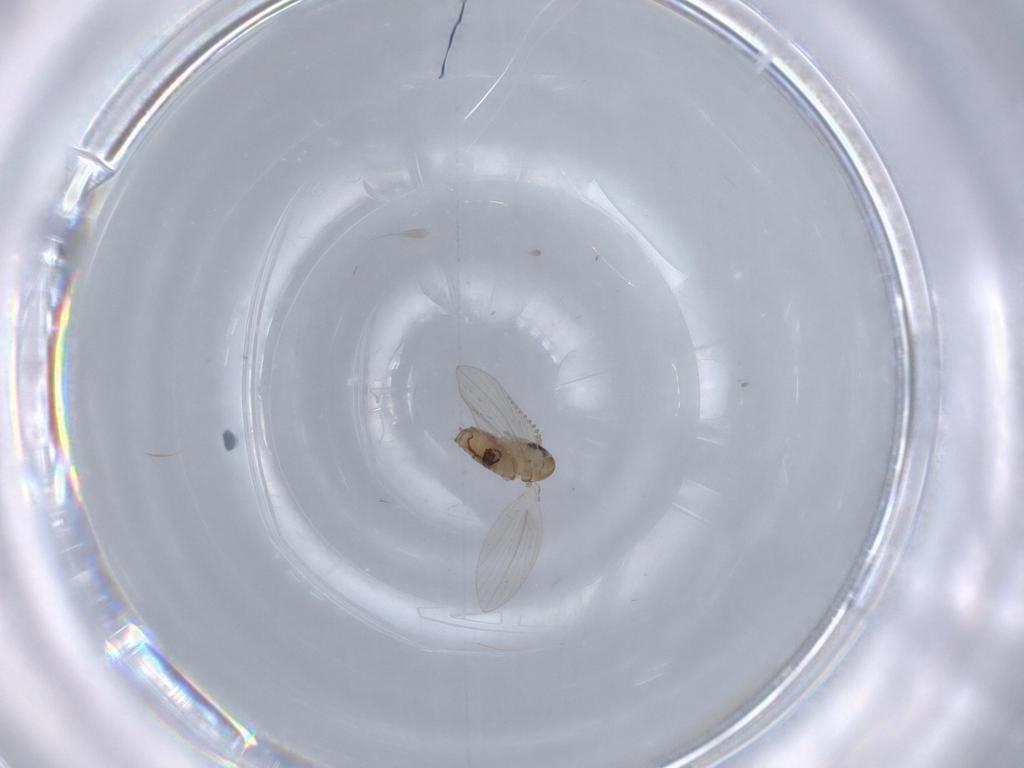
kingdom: Animalia
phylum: Arthropoda
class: Insecta
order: Diptera
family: Psychodidae
